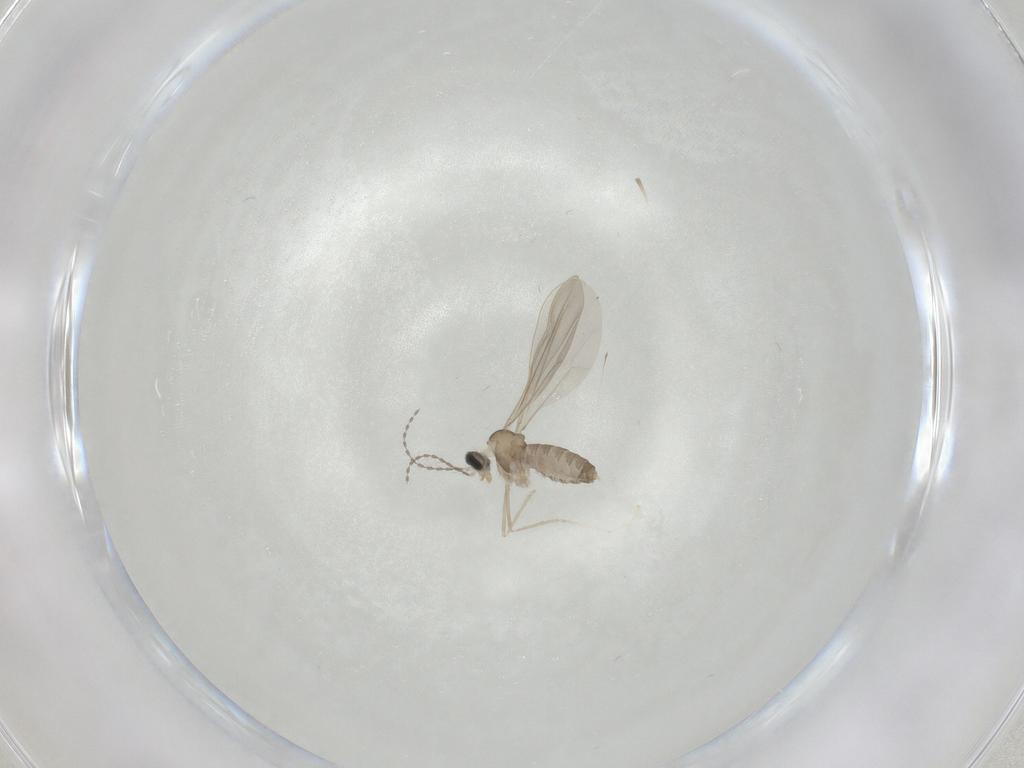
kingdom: Animalia
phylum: Arthropoda
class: Insecta
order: Diptera
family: Cecidomyiidae
